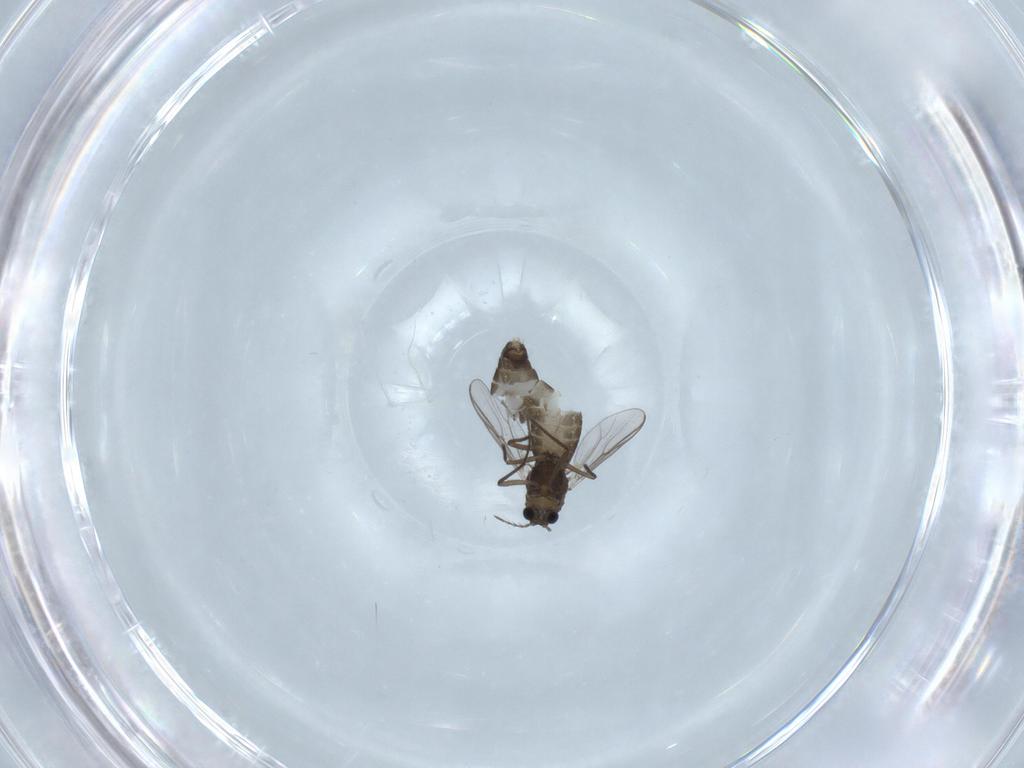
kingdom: Animalia
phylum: Arthropoda
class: Insecta
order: Diptera
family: Chironomidae
